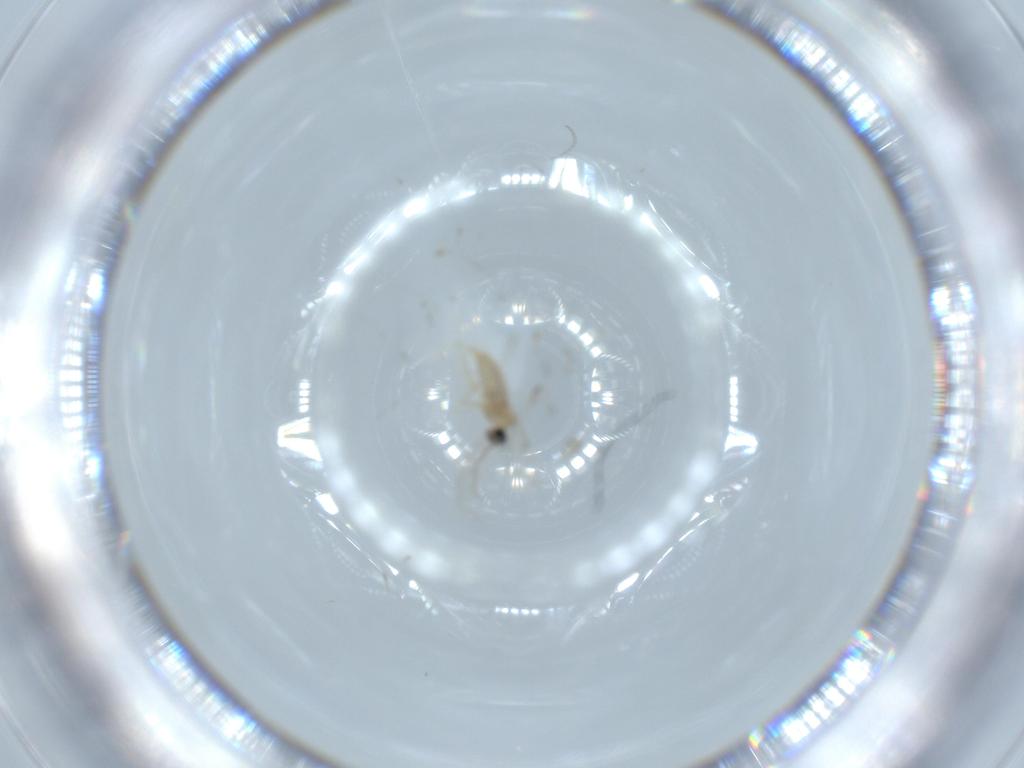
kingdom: Animalia
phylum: Arthropoda
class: Insecta
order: Diptera
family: Cecidomyiidae
